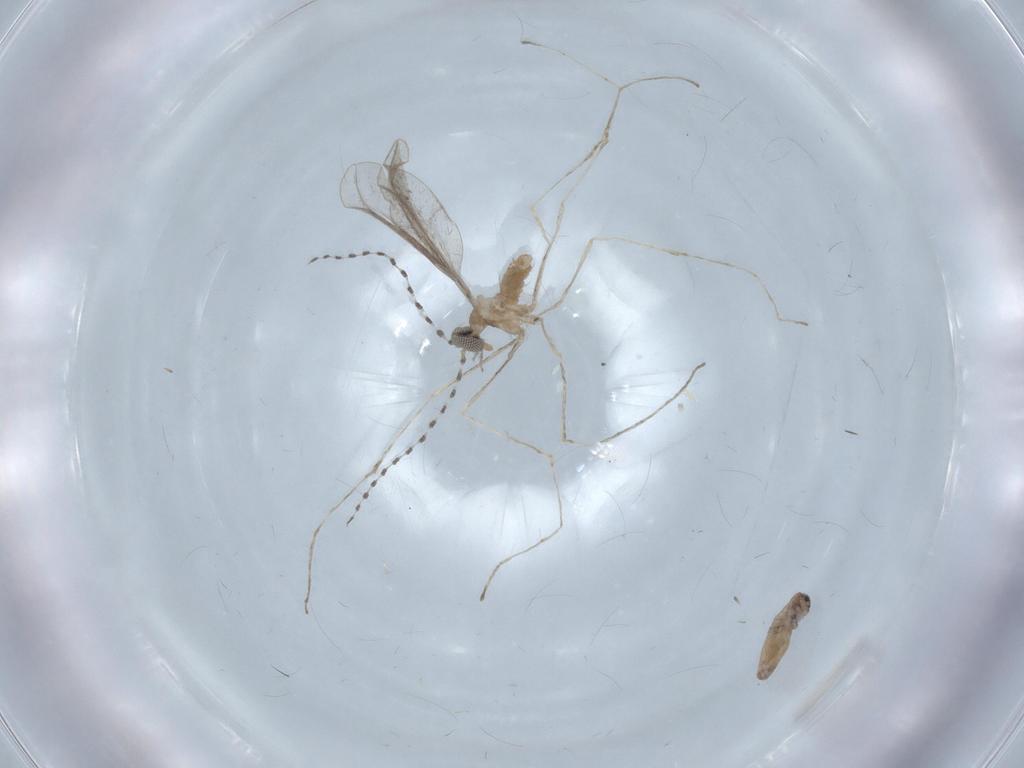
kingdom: Animalia
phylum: Arthropoda
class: Insecta
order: Diptera
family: Cecidomyiidae
